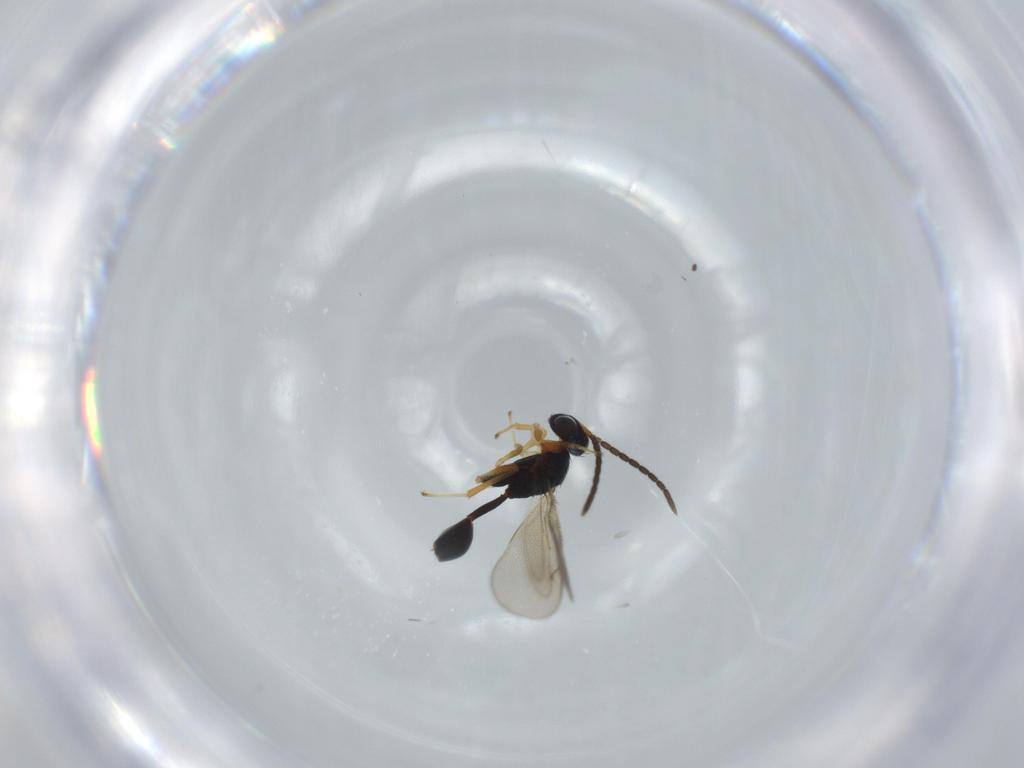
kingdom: Animalia
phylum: Arthropoda
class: Insecta
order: Hymenoptera
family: Diparidae
